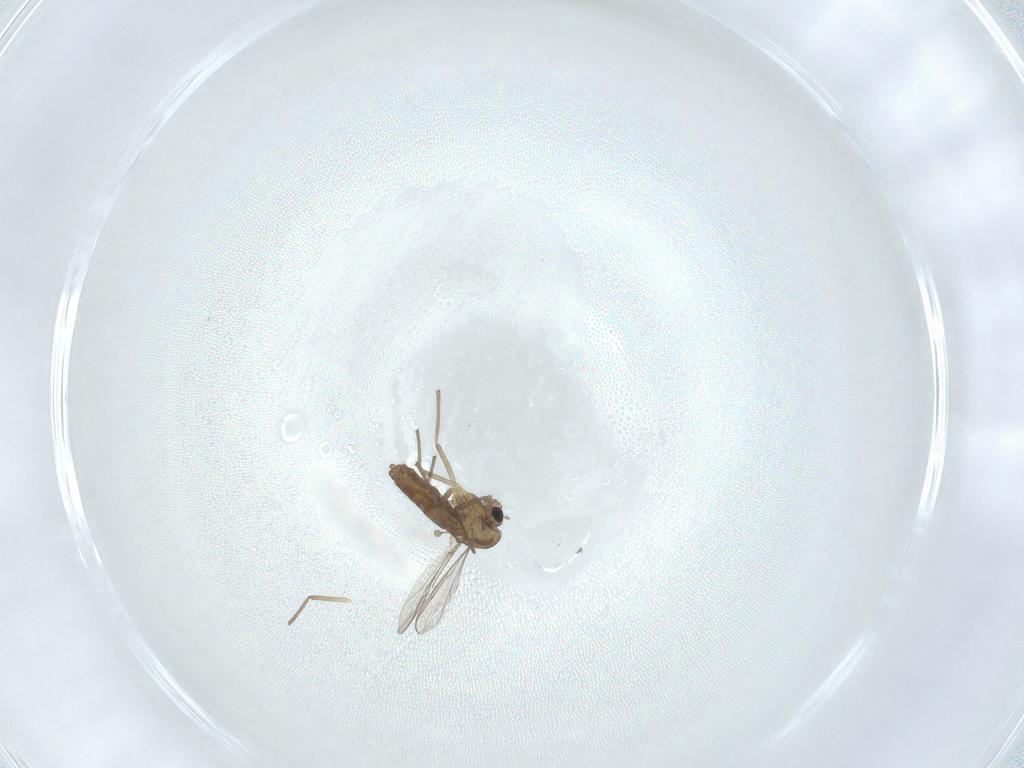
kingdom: Animalia
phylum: Arthropoda
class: Insecta
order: Diptera
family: Chironomidae
